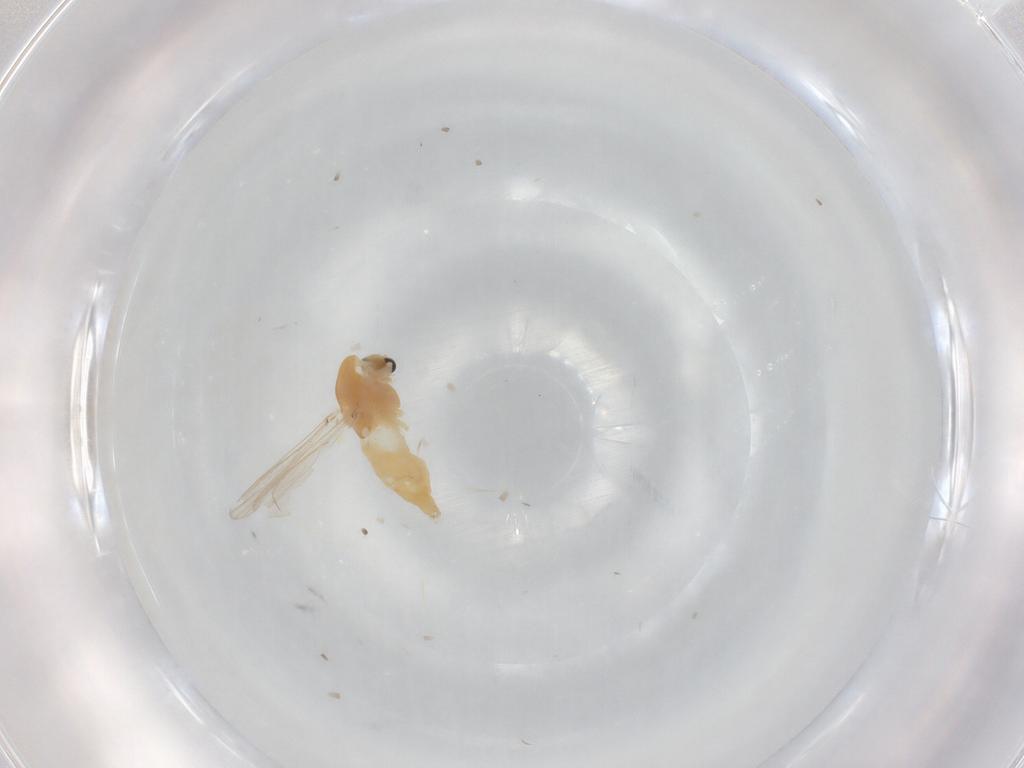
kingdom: Animalia
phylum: Arthropoda
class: Insecta
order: Diptera
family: Chironomidae
